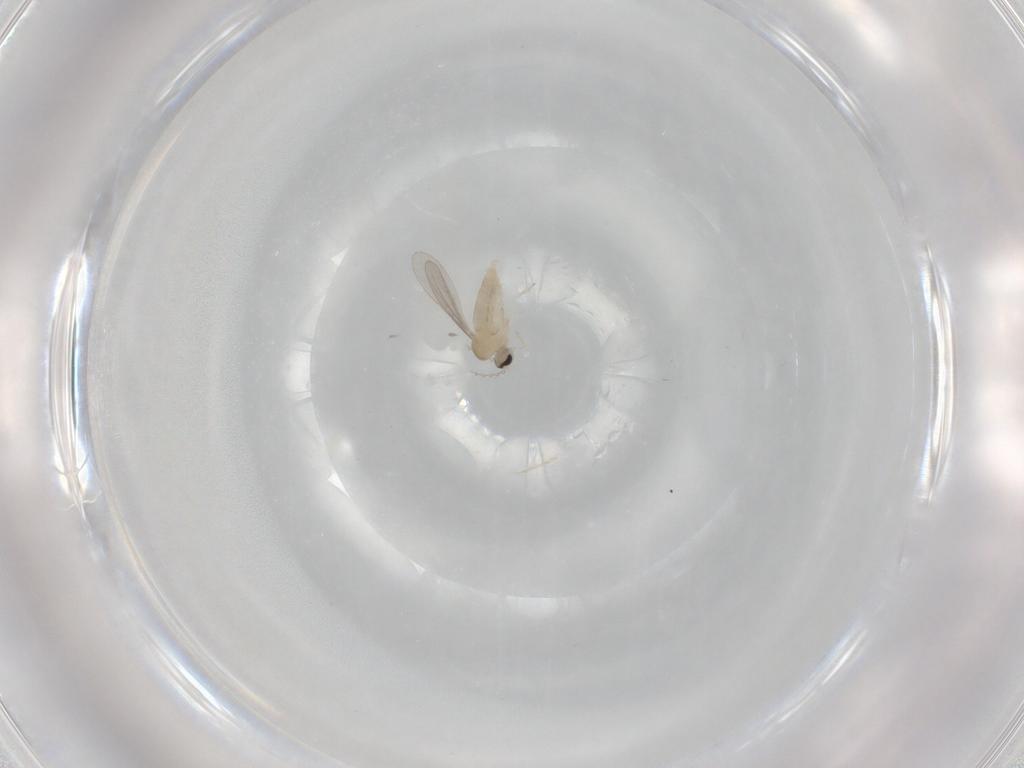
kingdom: Animalia
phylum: Arthropoda
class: Insecta
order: Diptera
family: Cecidomyiidae
